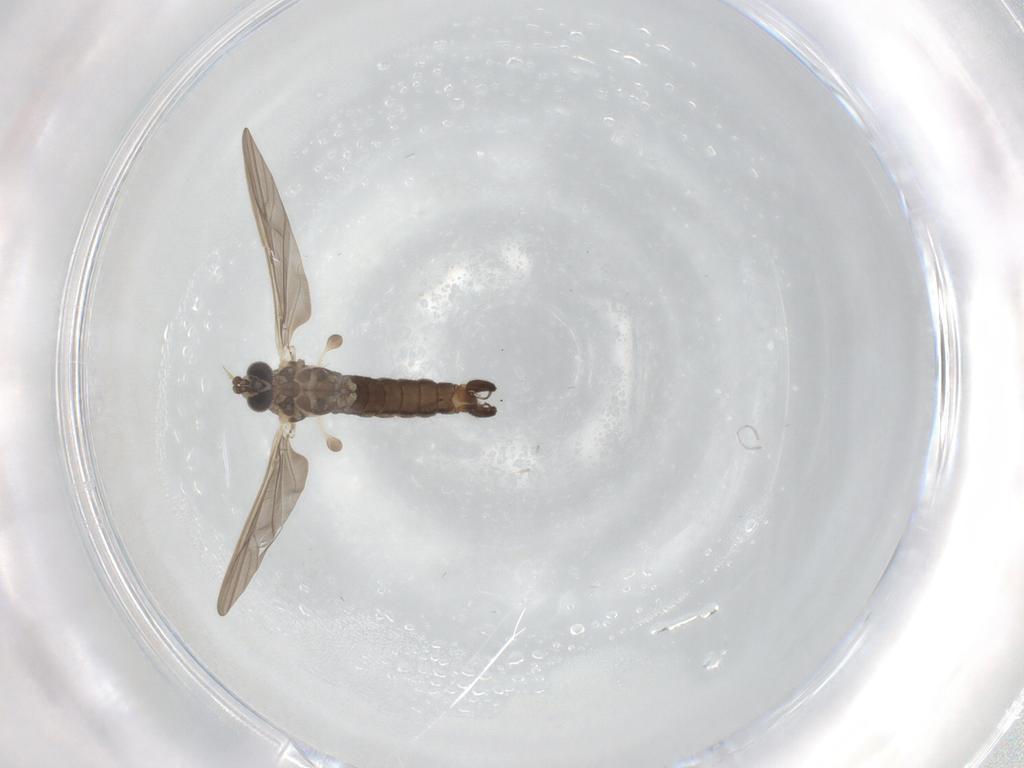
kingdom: Animalia
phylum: Arthropoda
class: Insecta
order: Diptera
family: Limoniidae
